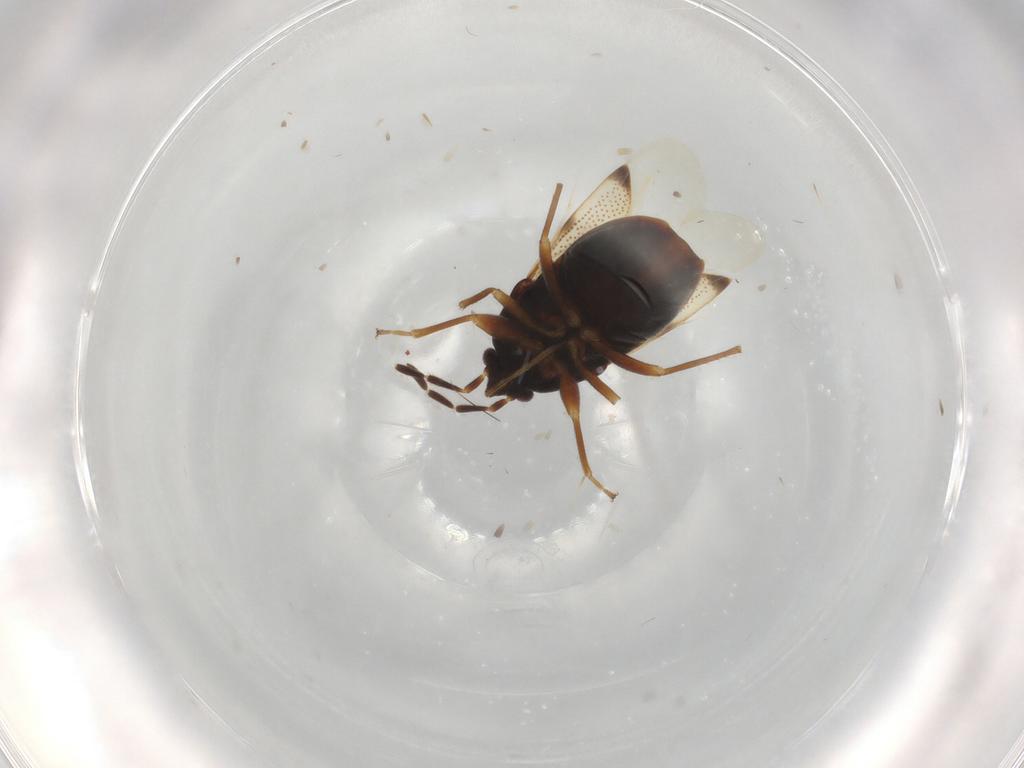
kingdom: Animalia
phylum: Arthropoda
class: Insecta
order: Hemiptera
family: Rhyparochromidae
